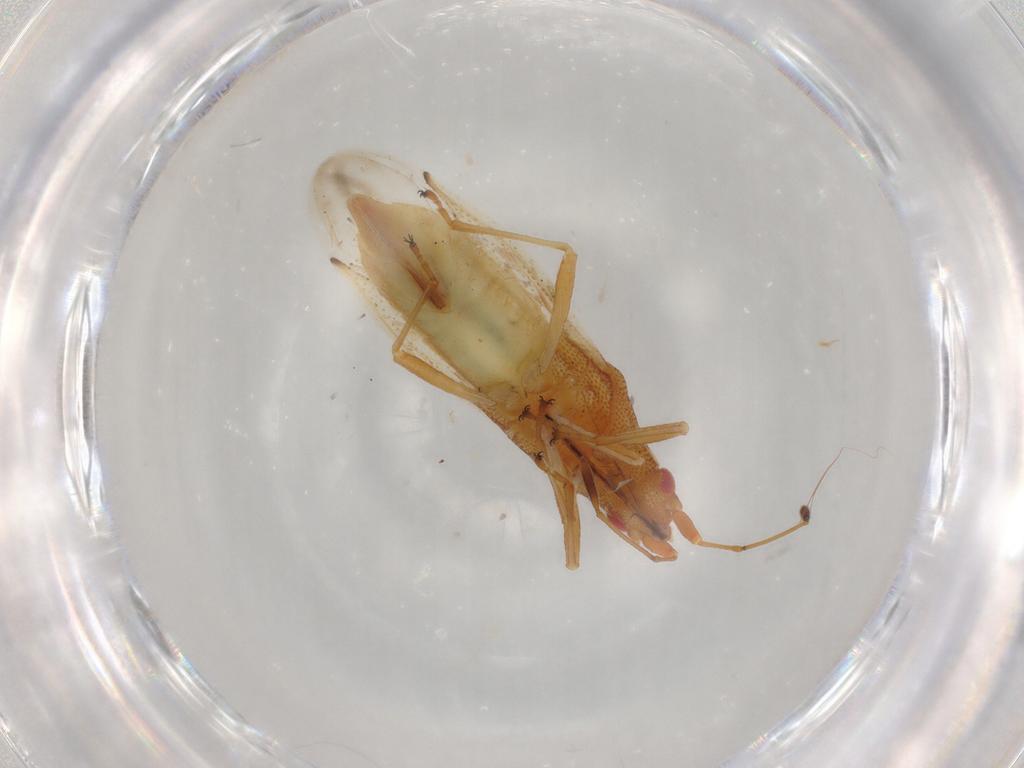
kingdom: Animalia
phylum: Arthropoda
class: Insecta
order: Hemiptera
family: Cymidae
